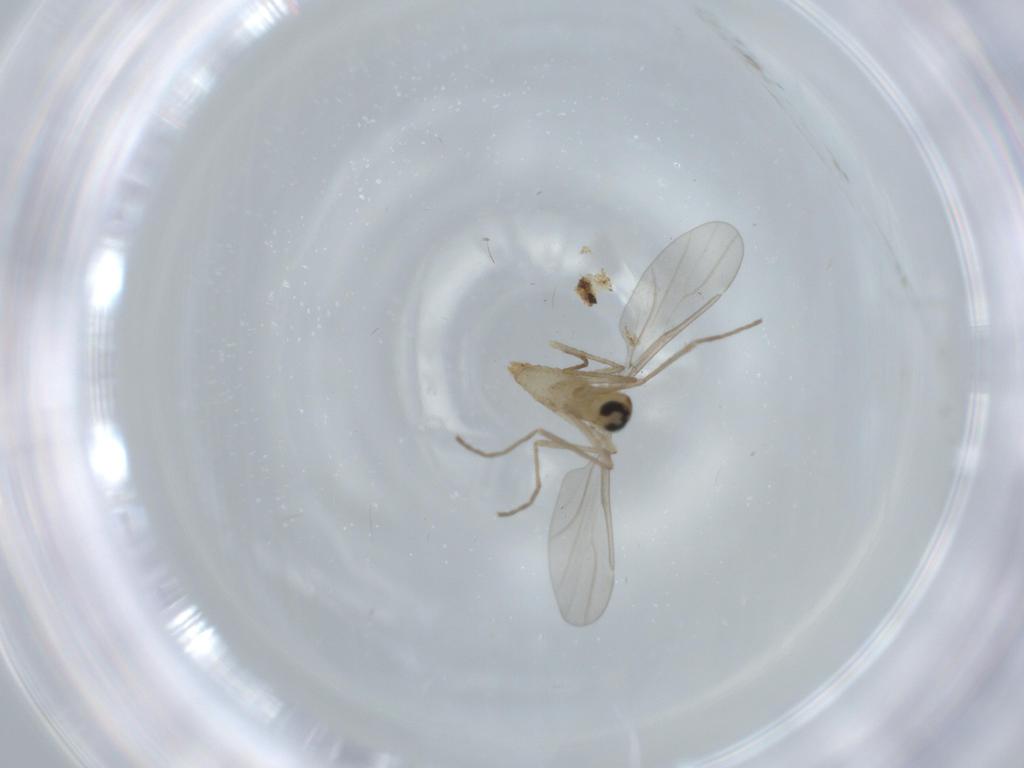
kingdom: Animalia
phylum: Arthropoda
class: Insecta
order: Diptera
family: Cecidomyiidae
